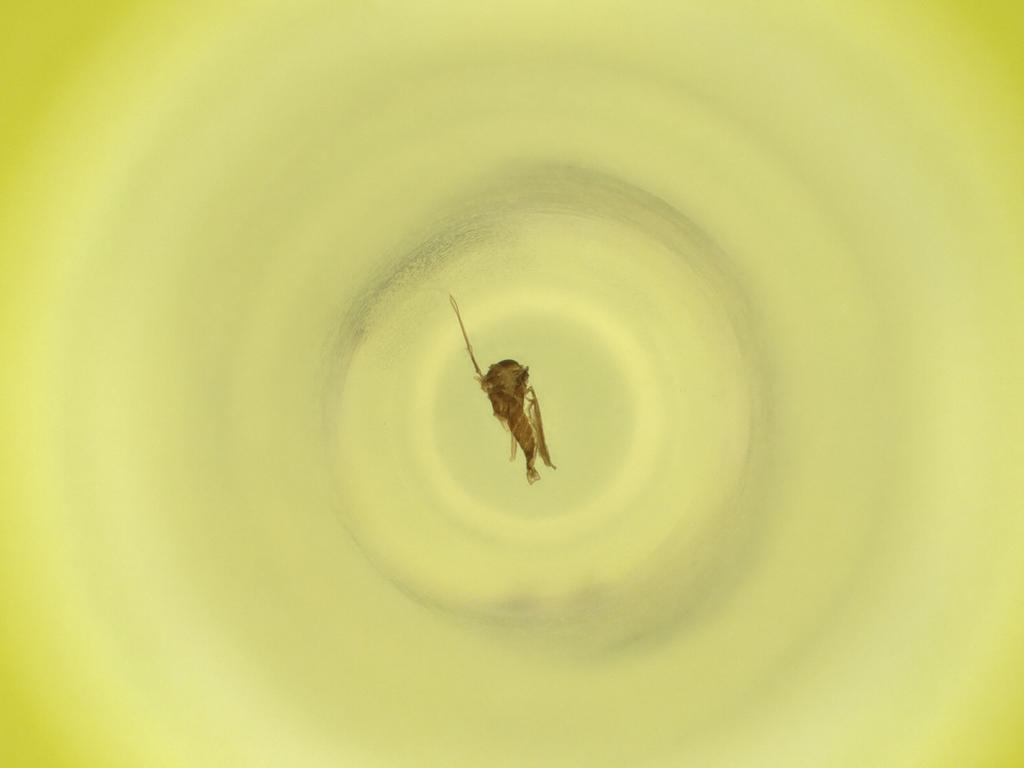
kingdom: Animalia
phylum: Arthropoda
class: Insecta
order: Diptera
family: Cecidomyiidae
